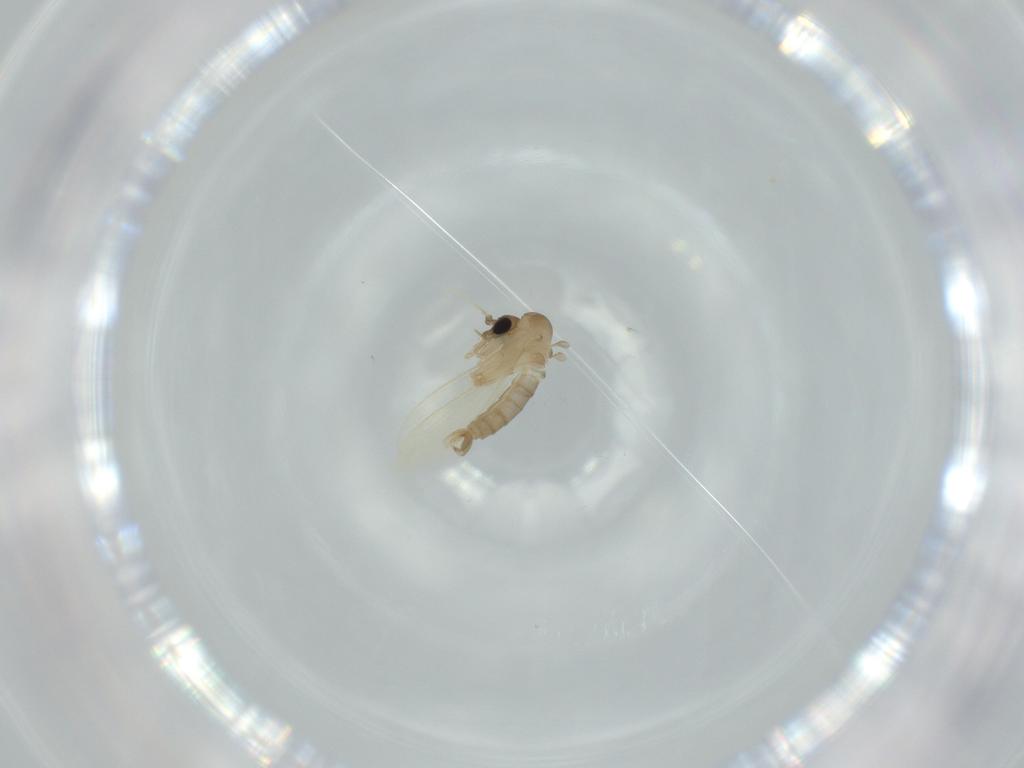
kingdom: Animalia
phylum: Arthropoda
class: Insecta
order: Diptera
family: Psychodidae
